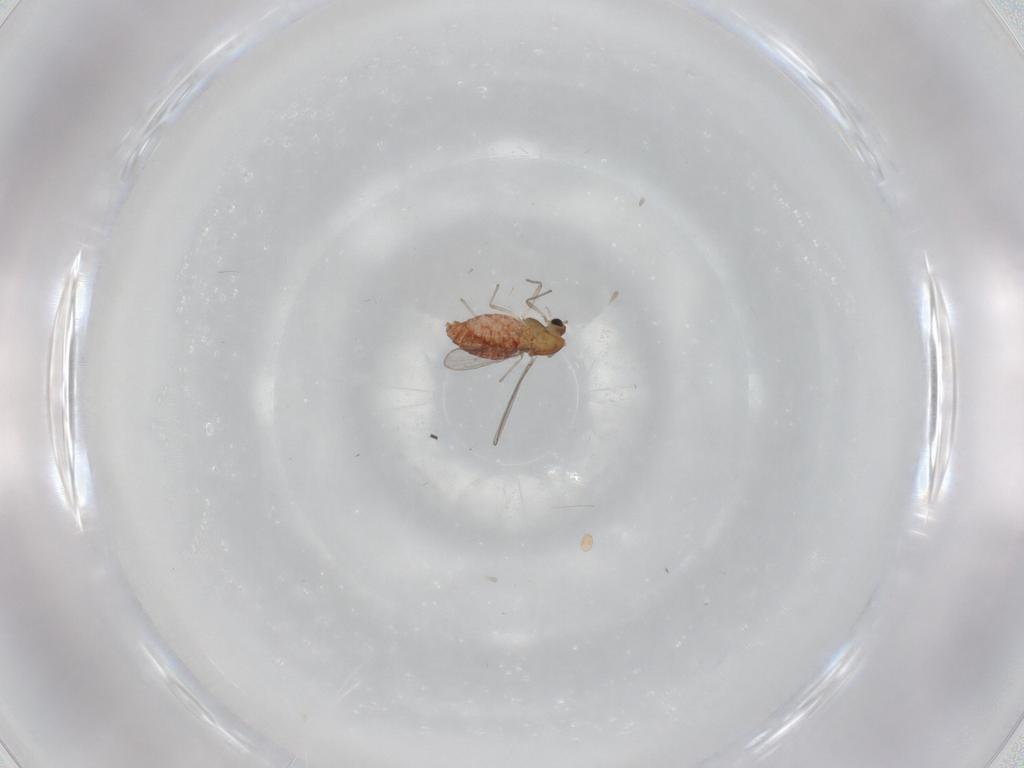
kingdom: Animalia
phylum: Arthropoda
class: Insecta
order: Diptera
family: Chironomidae
